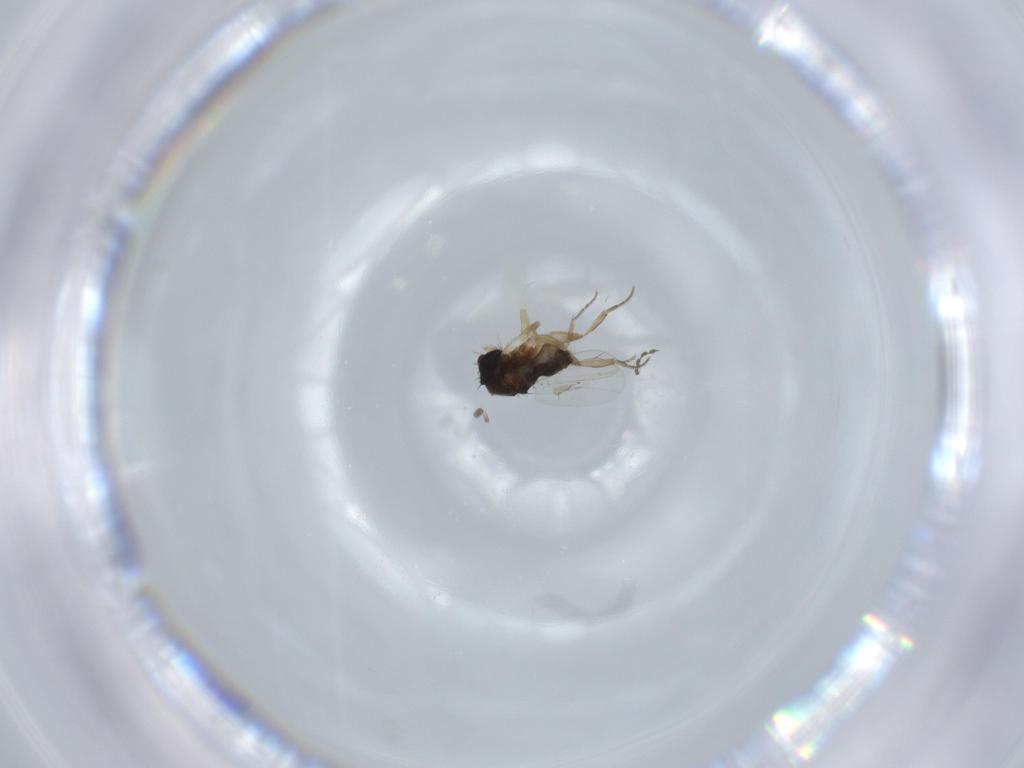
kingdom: Animalia
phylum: Arthropoda
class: Insecta
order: Diptera
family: Cecidomyiidae
